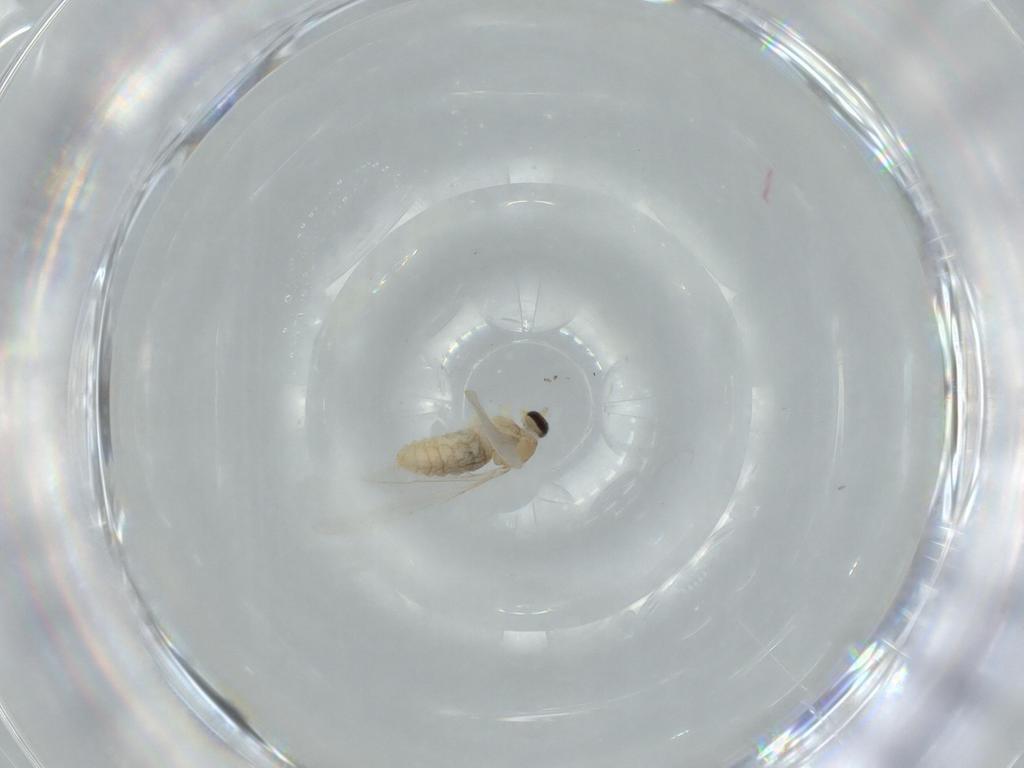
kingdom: Animalia
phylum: Arthropoda
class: Insecta
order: Diptera
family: Cecidomyiidae
